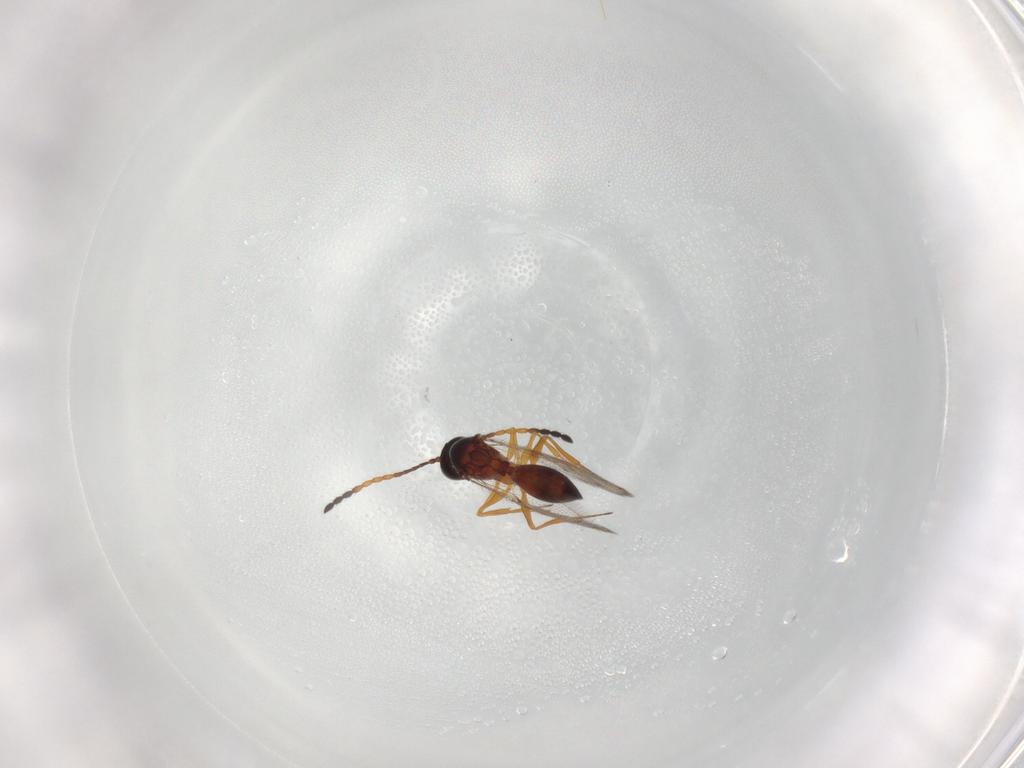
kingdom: Animalia
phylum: Arthropoda
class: Insecta
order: Hymenoptera
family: Figitidae
